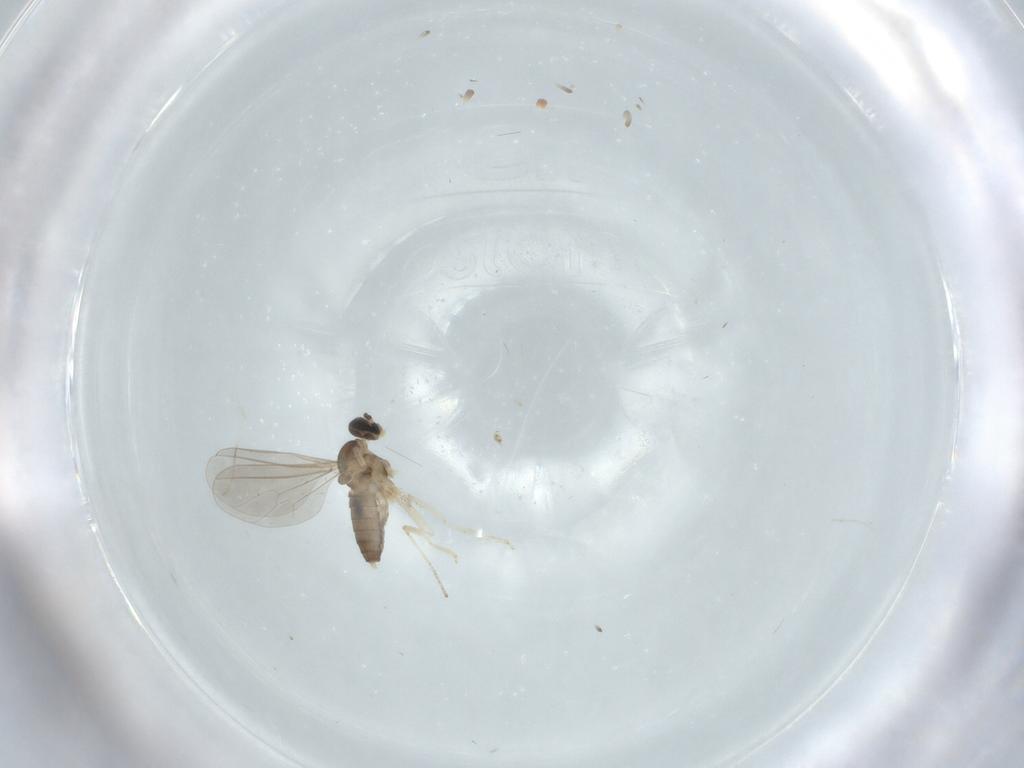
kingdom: Animalia
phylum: Arthropoda
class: Insecta
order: Diptera
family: Cecidomyiidae
